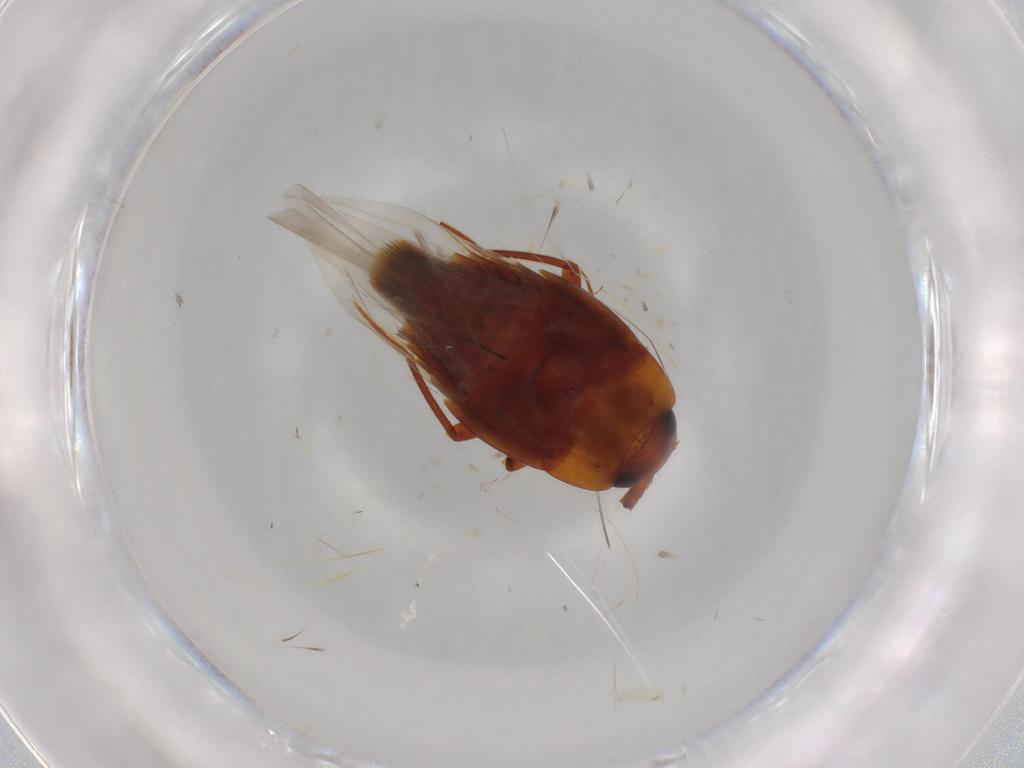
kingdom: Animalia
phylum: Arthropoda
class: Insecta
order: Coleoptera
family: Staphylinidae
